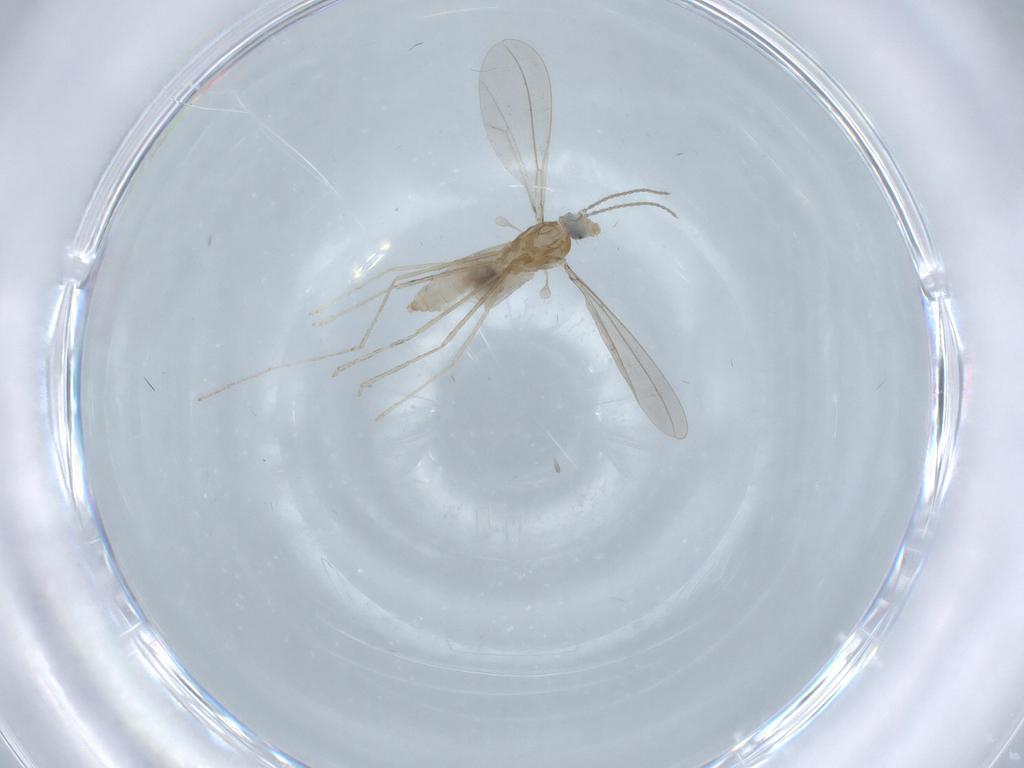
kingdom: Animalia
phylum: Arthropoda
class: Insecta
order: Diptera
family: Cecidomyiidae
